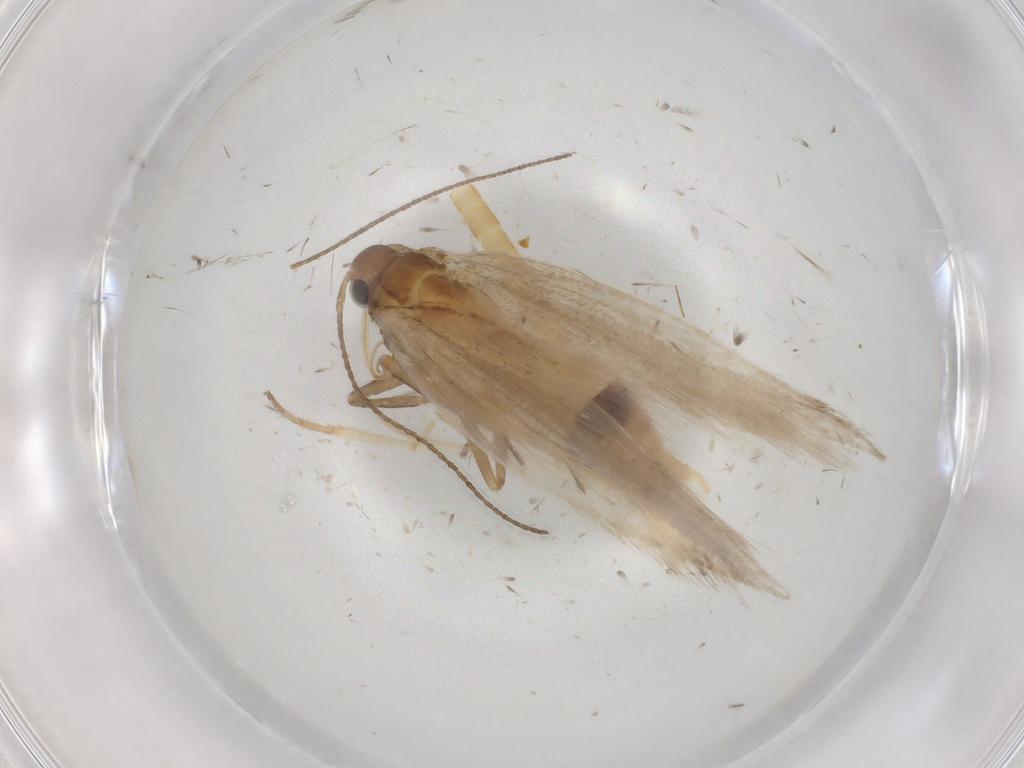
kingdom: Animalia
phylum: Arthropoda
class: Insecta
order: Lepidoptera
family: Gelechiidae
